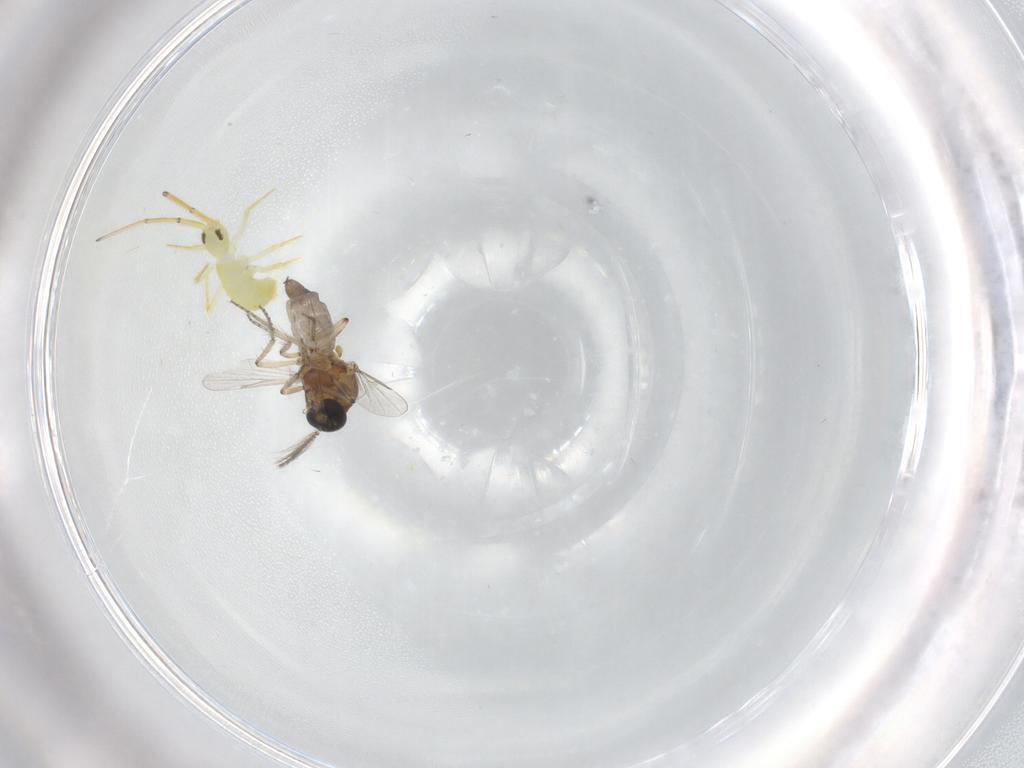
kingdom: Animalia
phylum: Arthropoda
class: Insecta
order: Diptera
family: Ceratopogonidae
